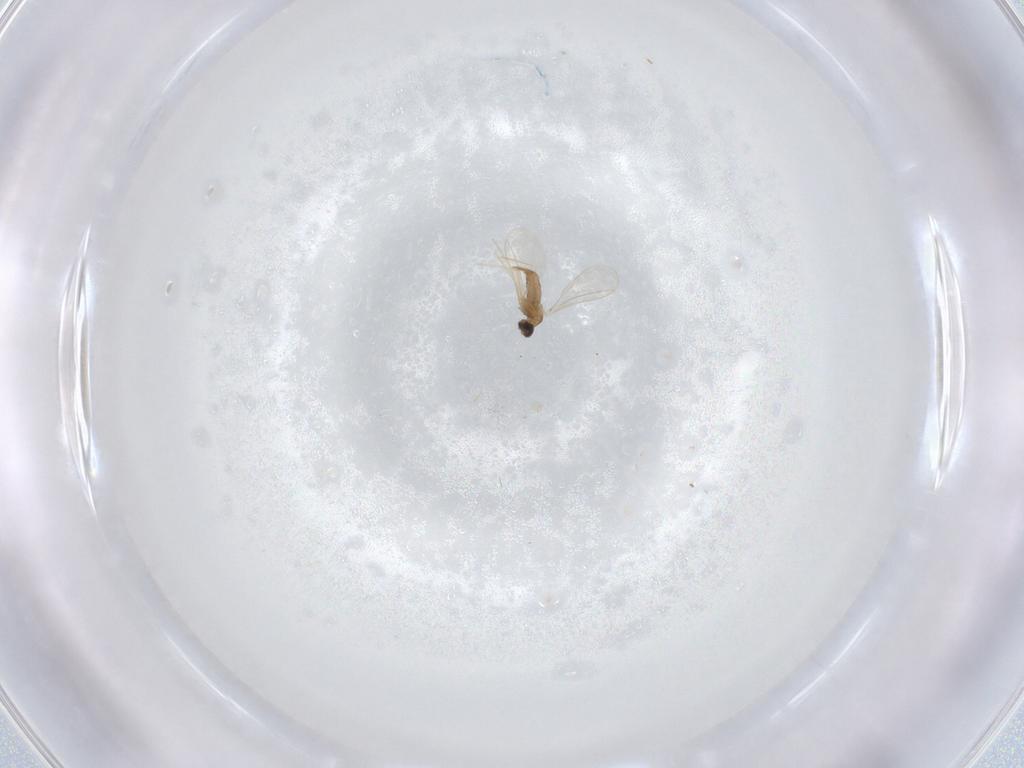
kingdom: Animalia
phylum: Arthropoda
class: Insecta
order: Diptera
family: Cecidomyiidae
